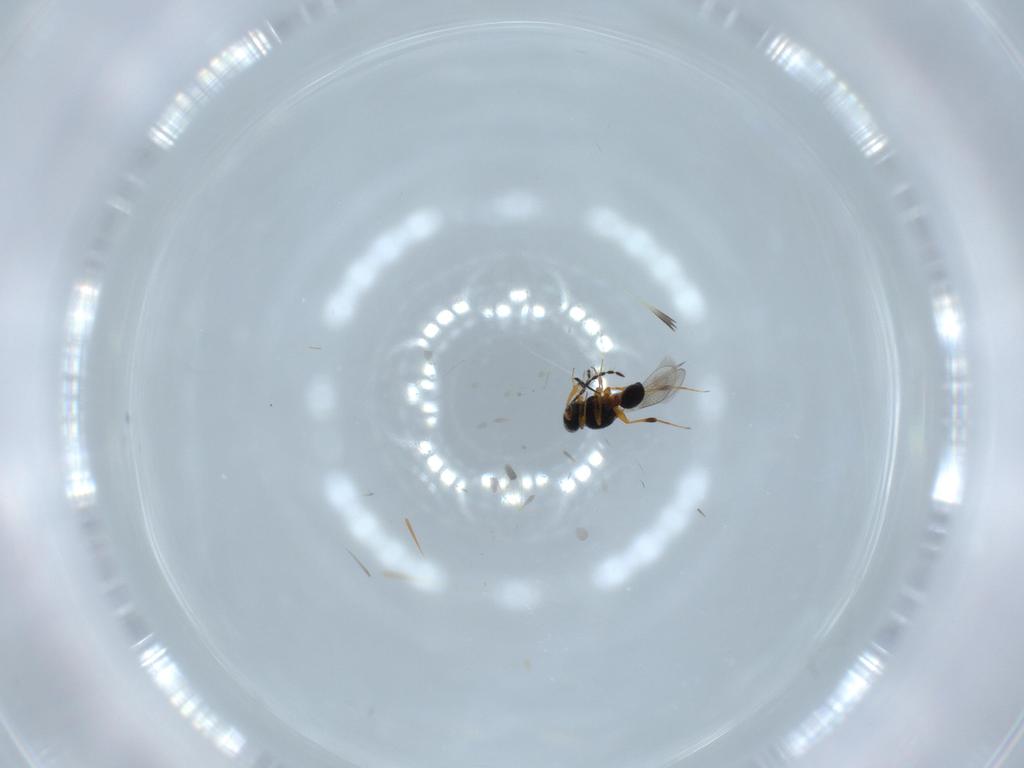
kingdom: Animalia
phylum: Arthropoda
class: Insecta
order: Hymenoptera
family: Platygastridae
